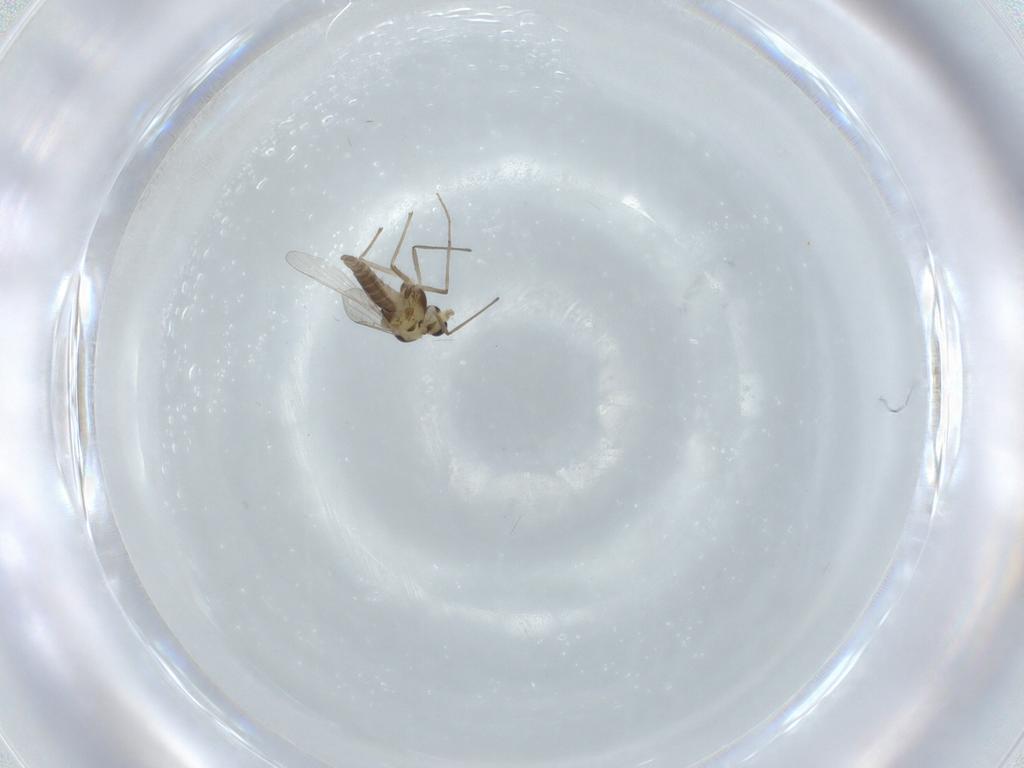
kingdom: Animalia
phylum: Arthropoda
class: Insecta
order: Diptera
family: Chironomidae
